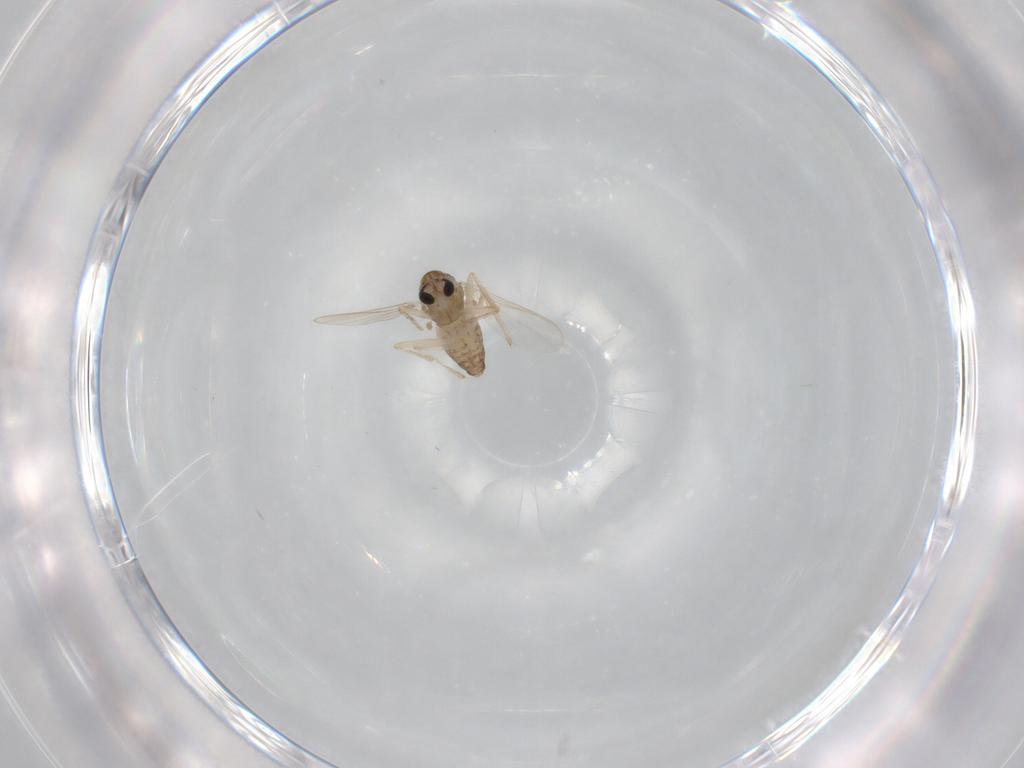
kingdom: Animalia
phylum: Arthropoda
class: Insecta
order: Diptera
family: Chironomidae
